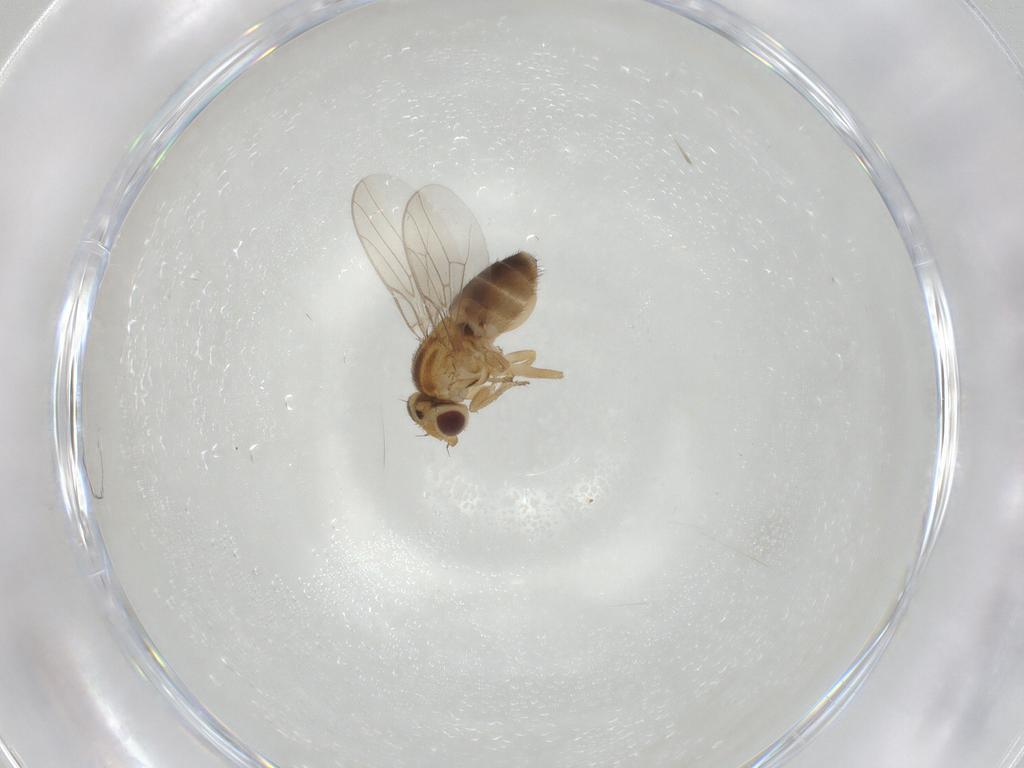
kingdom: Animalia
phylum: Arthropoda
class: Insecta
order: Diptera
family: Chloropidae
